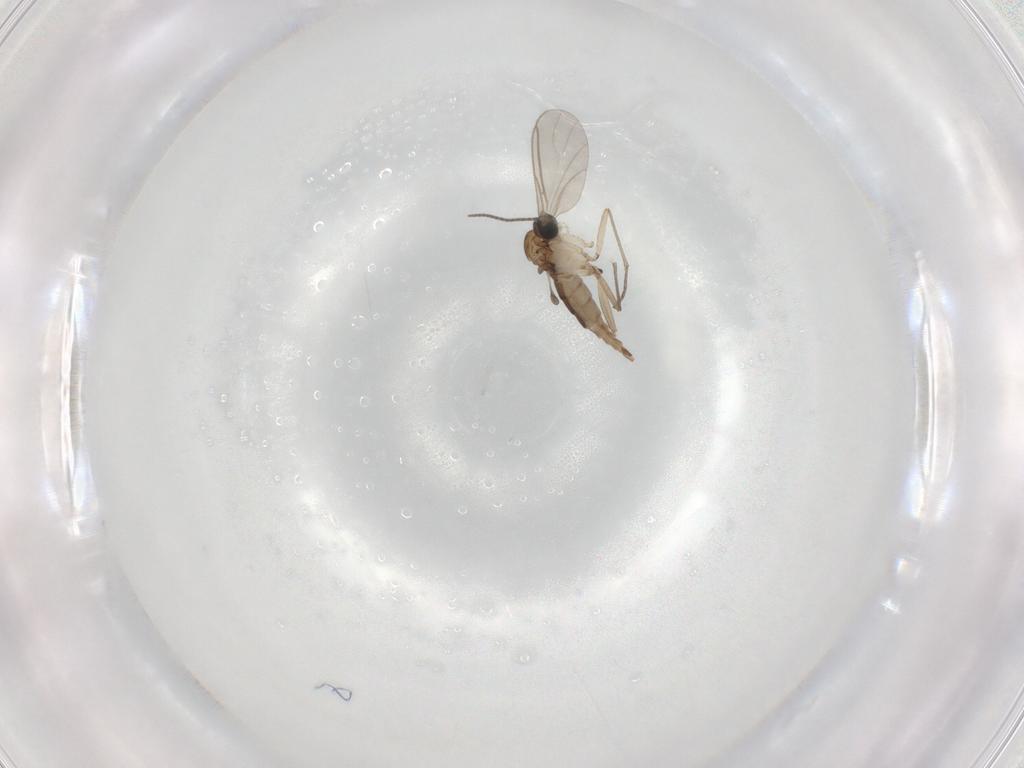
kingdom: Animalia
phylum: Arthropoda
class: Insecta
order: Diptera
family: Sciaridae
